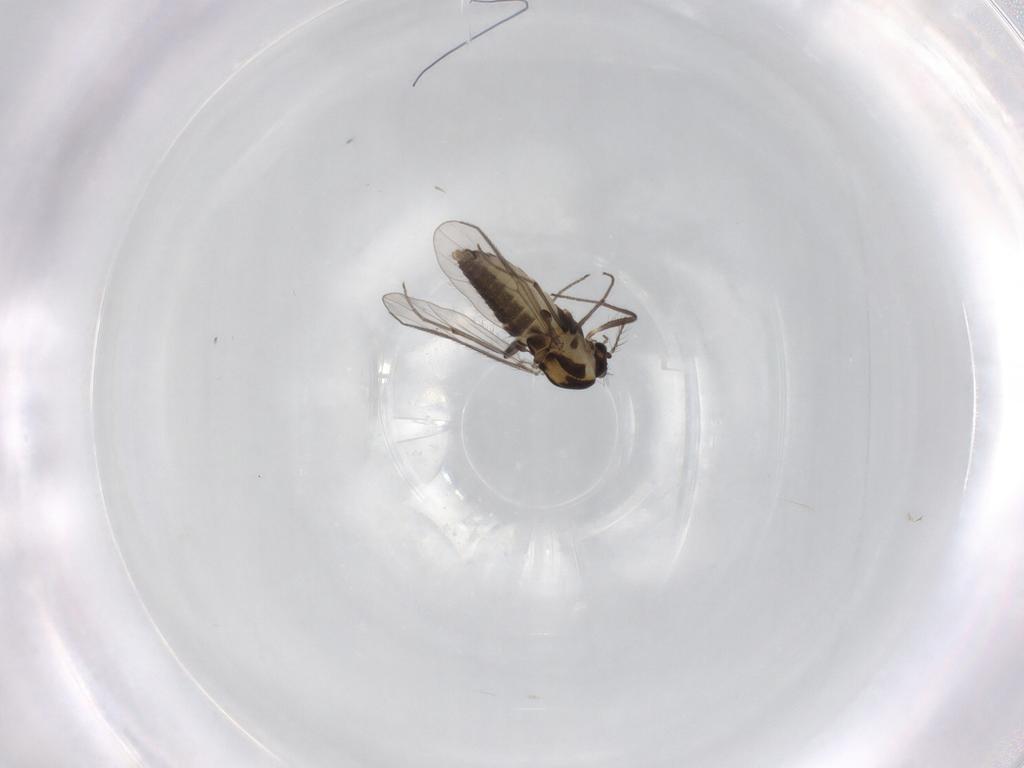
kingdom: Animalia
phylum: Arthropoda
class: Insecta
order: Diptera
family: Chironomidae
